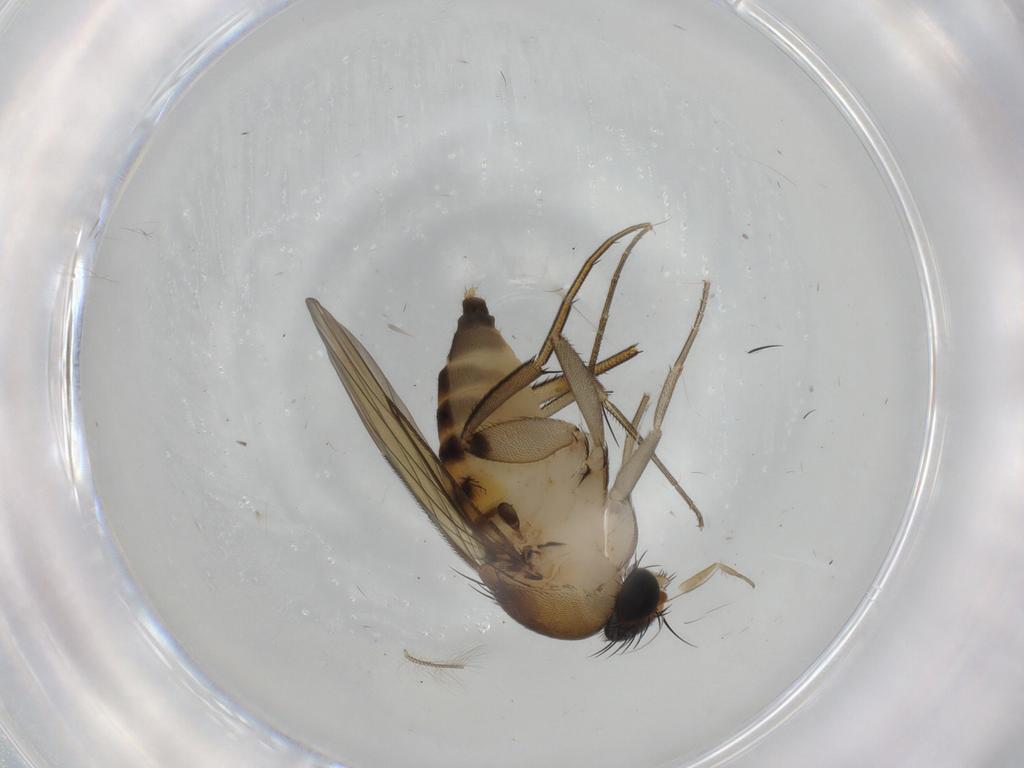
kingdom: Animalia
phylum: Arthropoda
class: Insecta
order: Diptera
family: Phoridae
